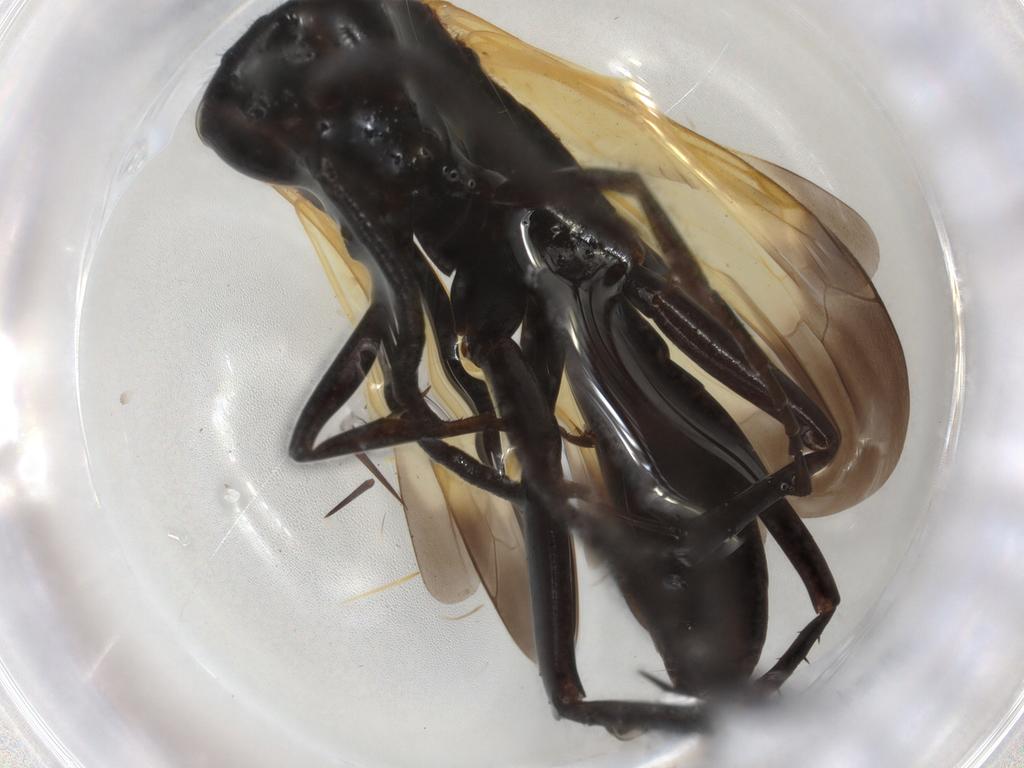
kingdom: Animalia
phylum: Arthropoda
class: Insecta
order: Hymenoptera
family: Pompilidae
